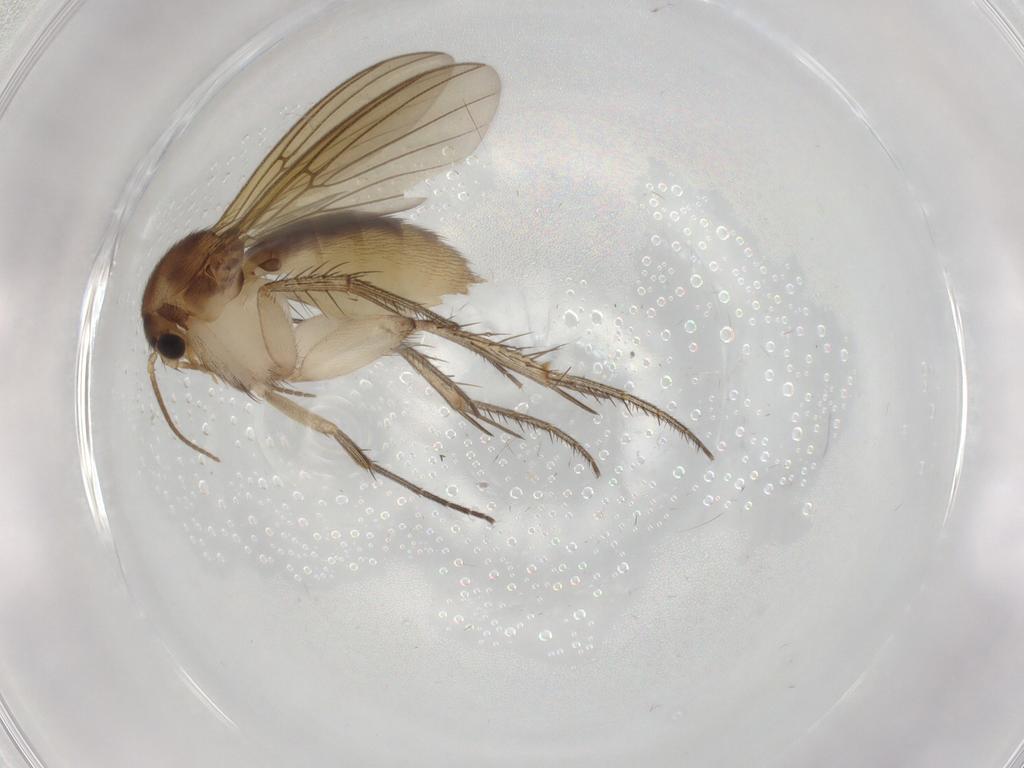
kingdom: Animalia
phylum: Arthropoda
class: Insecta
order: Diptera
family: Mycetophilidae
